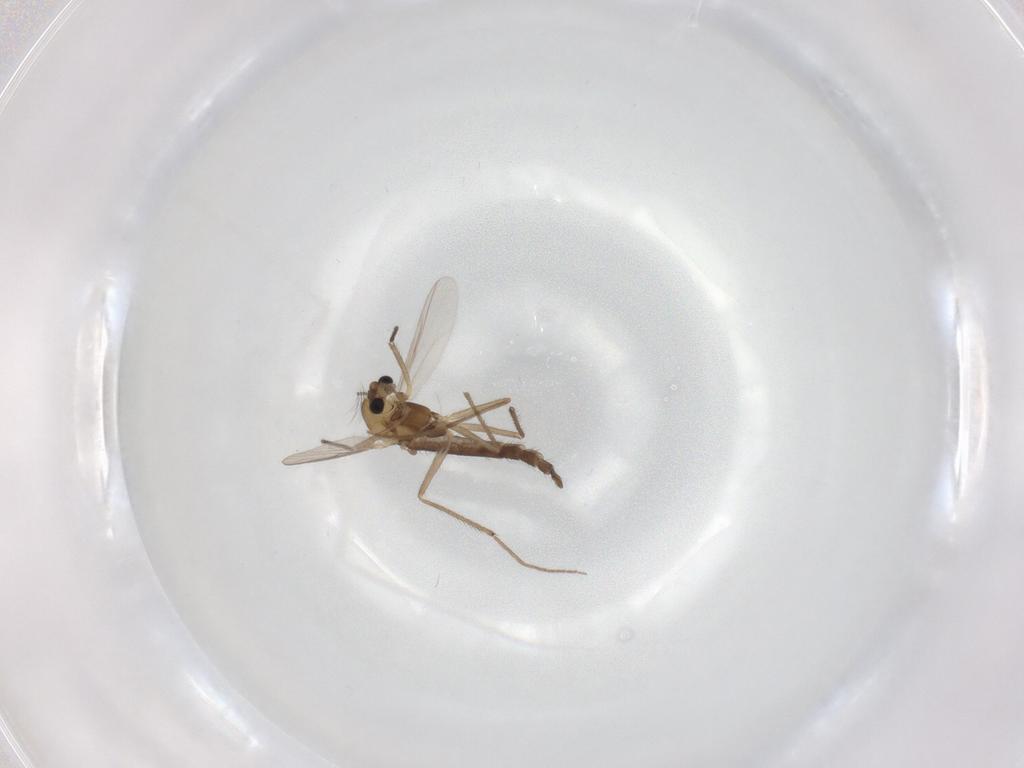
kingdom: Animalia
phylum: Arthropoda
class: Insecta
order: Diptera
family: Chironomidae
